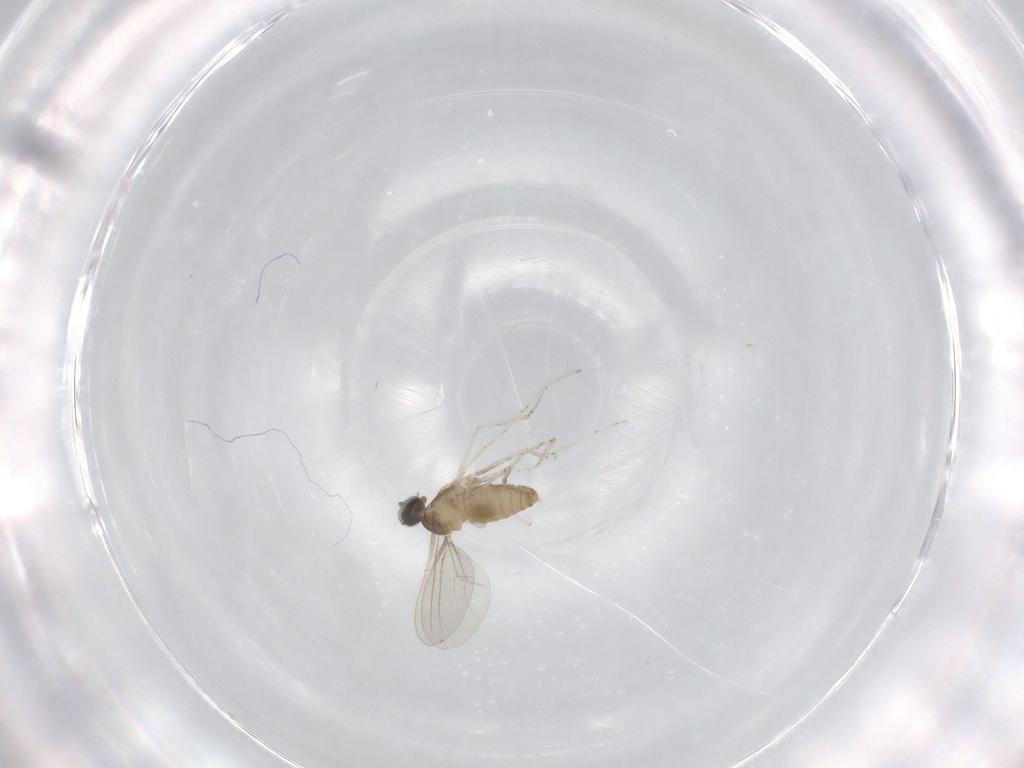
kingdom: Animalia
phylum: Arthropoda
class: Insecta
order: Diptera
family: Cecidomyiidae
